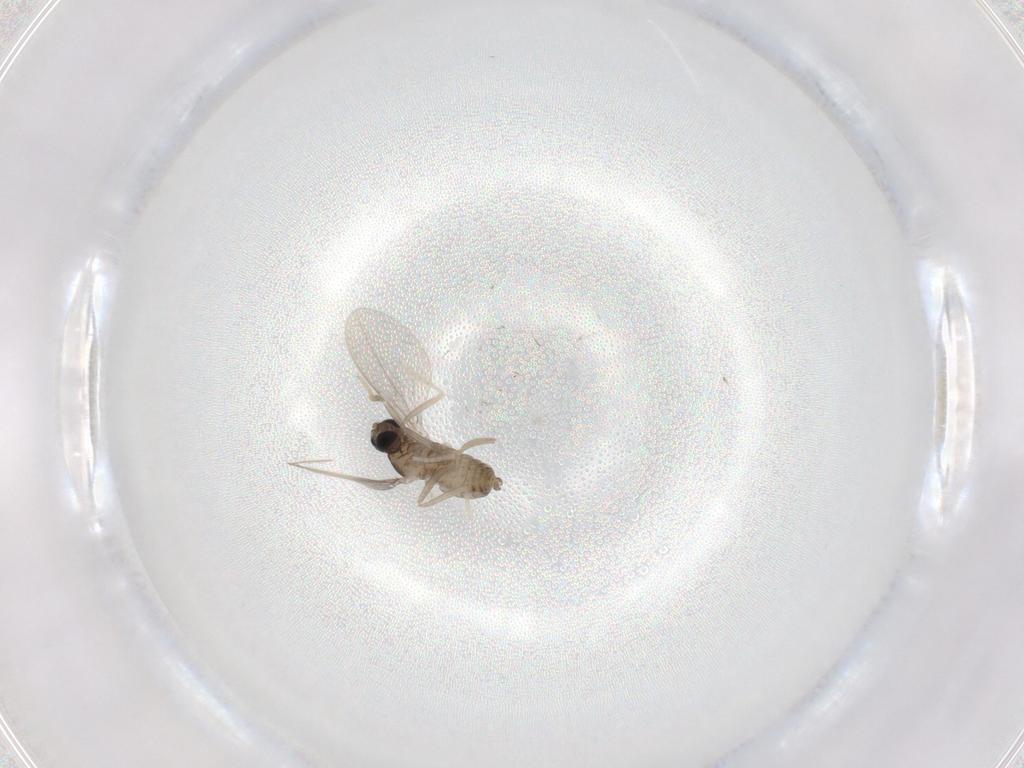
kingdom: Animalia
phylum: Arthropoda
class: Insecta
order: Diptera
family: Cecidomyiidae
